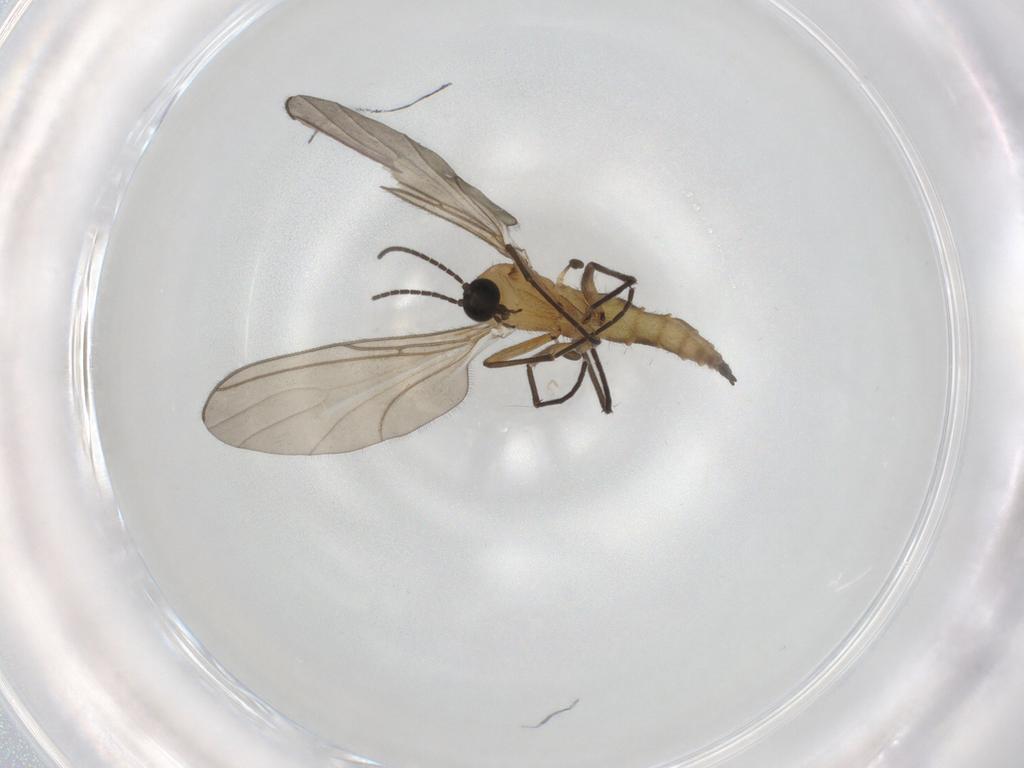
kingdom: Animalia
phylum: Arthropoda
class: Insecta
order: Diptera
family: Sciaridae
